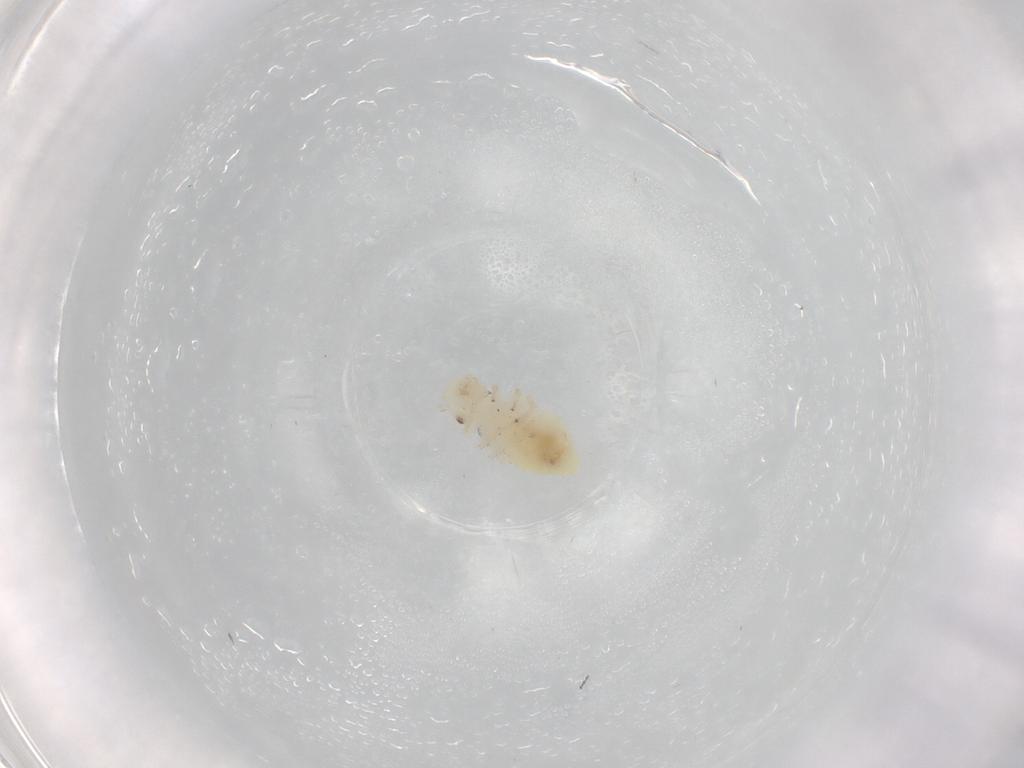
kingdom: Animalia
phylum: Arthropoda
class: Insecta
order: Psocodea
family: Caeciliusidae
